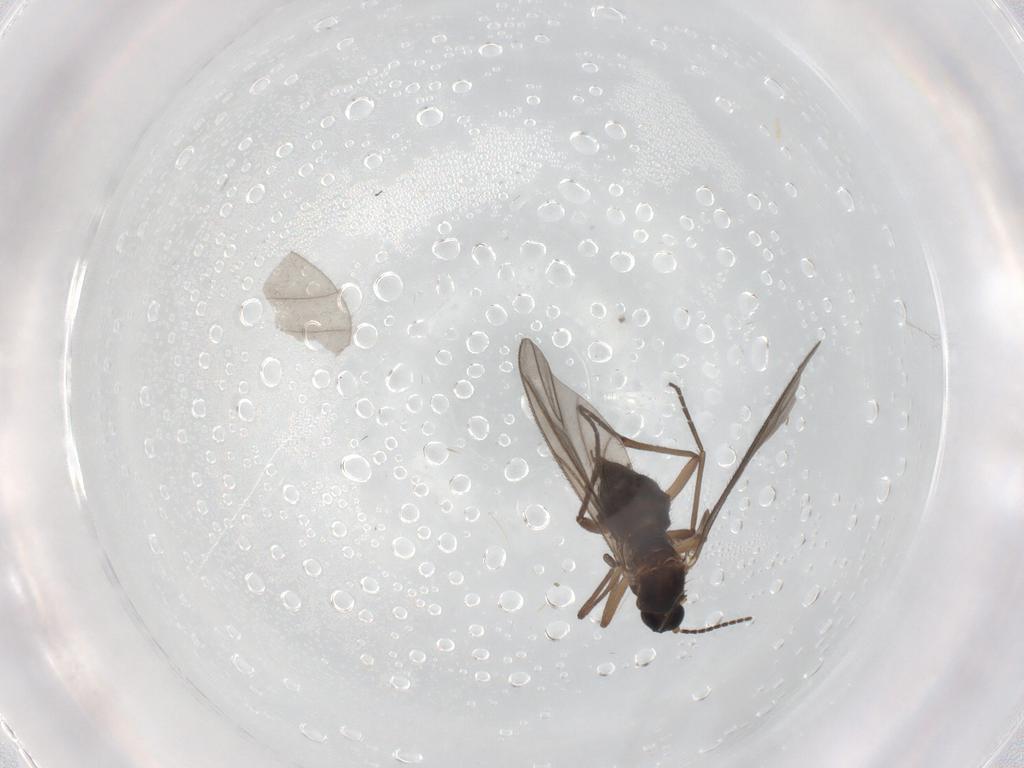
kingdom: Animalia
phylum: Arthropoda
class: Insecta
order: Diptera
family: Sciaridae
